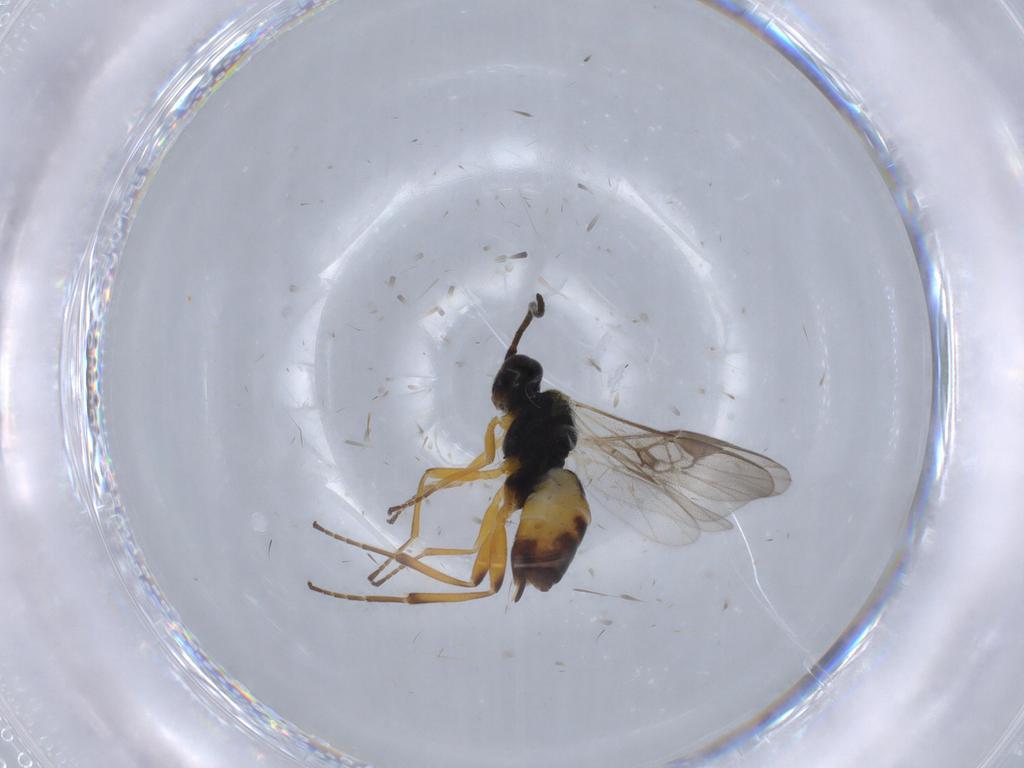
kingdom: Animalia
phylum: Arthropoda
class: Insecta
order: Hymenoptera
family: Braconidae
